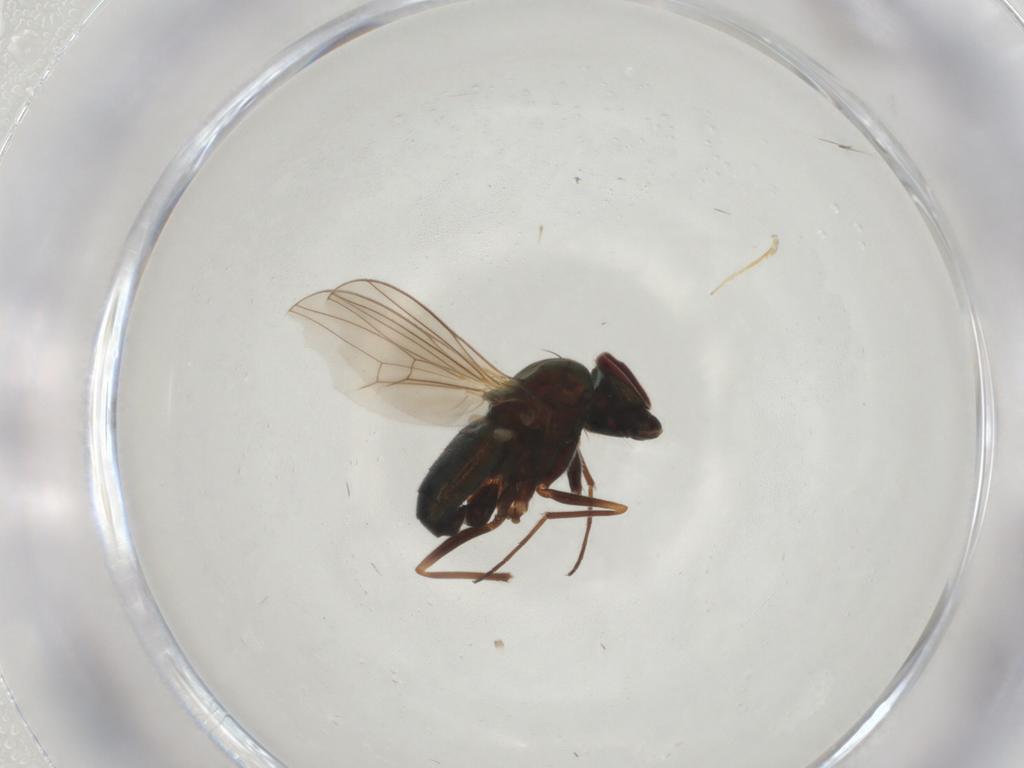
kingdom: Animalia
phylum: Arthropoda
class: Insecta
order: Diptera
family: Dolichopodidae
